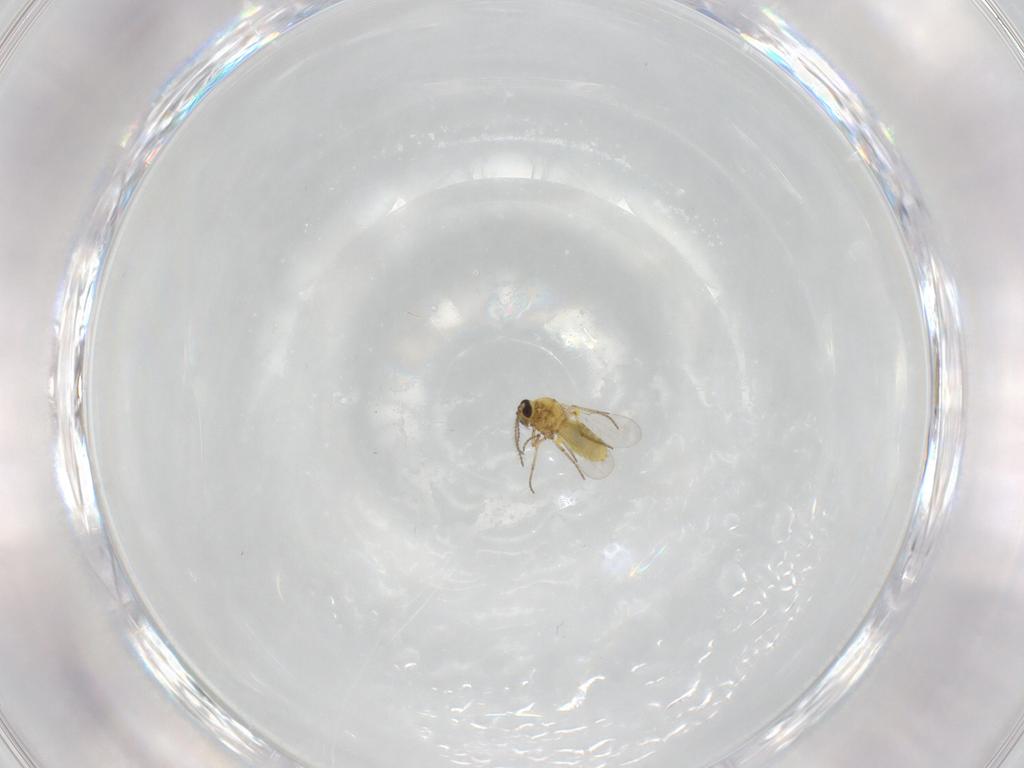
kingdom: Animalia
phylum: Arthropoda
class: Insecta
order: Diptera
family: Ceratopogonidae
